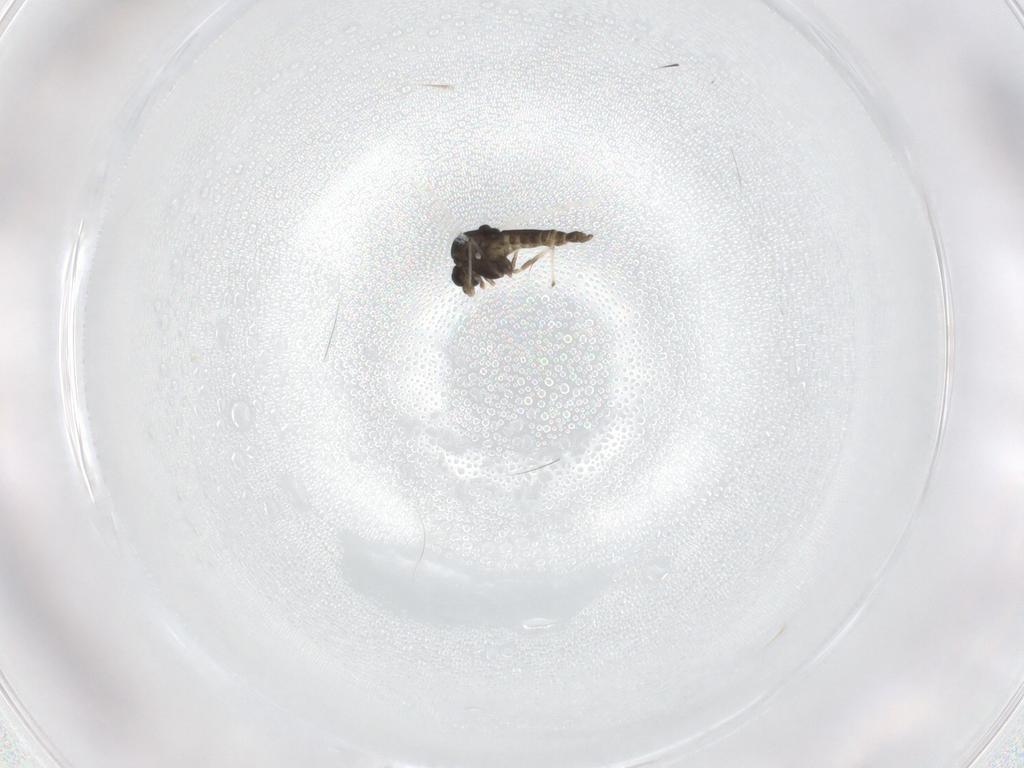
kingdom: Animalia
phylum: Arthropoda
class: Insecta
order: Diptera
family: Chironomidae
